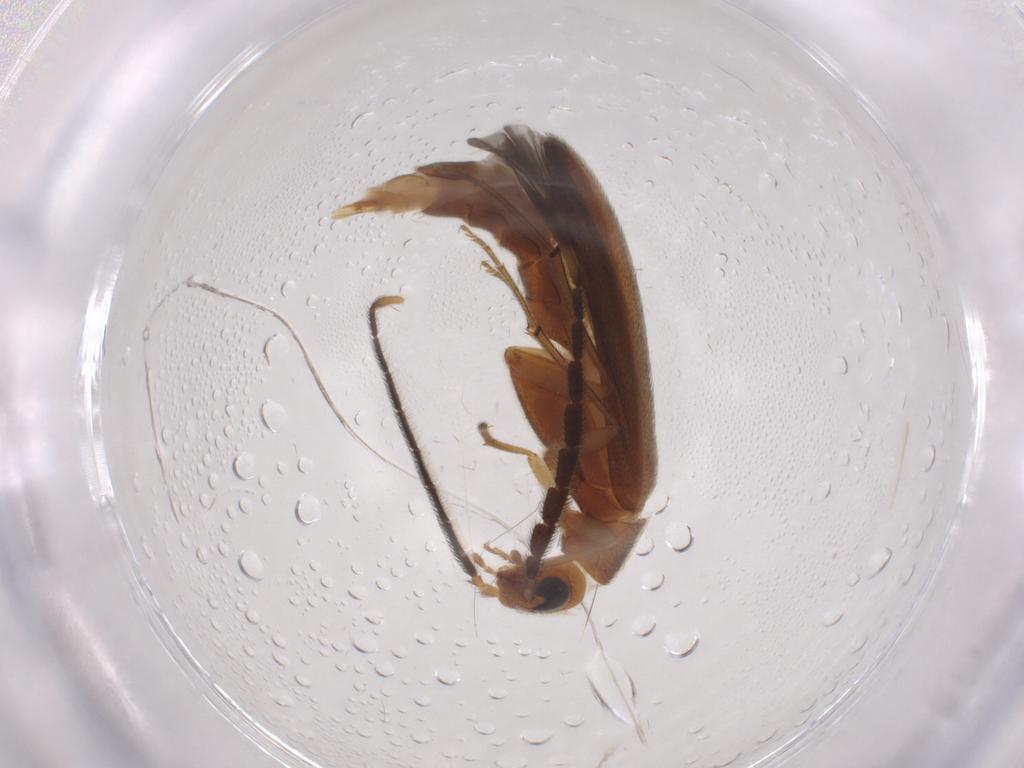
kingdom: Animalia
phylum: Arthropoda
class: Insecta
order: Coleoptera
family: Melandryidae
